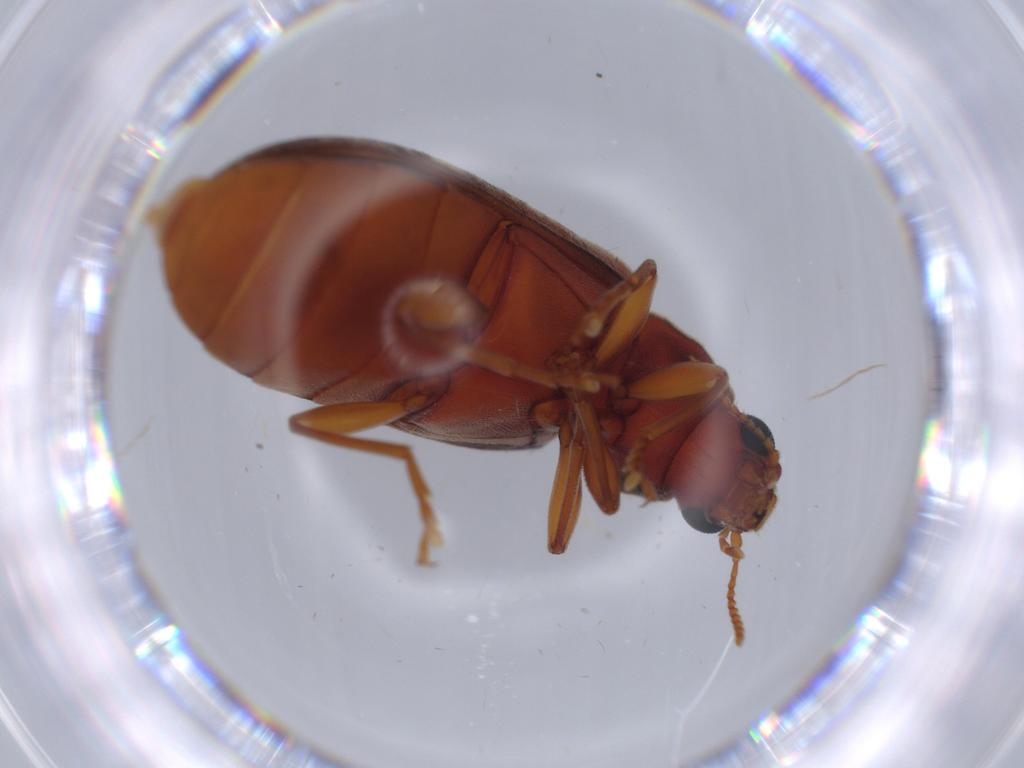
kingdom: Animalia
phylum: Arthropoda
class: Insecta
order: Coleoptera
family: Mycteridae
